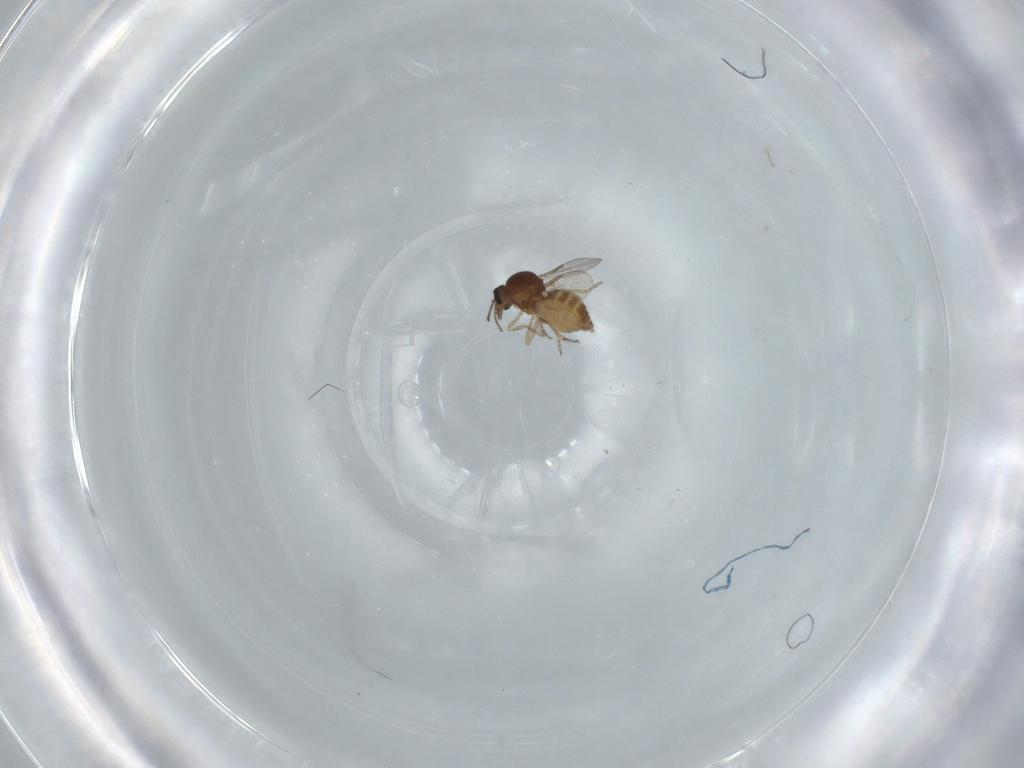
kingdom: Animalia
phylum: Arthropoda
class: Insecta
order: Diptera
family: Ceratopogonidae
